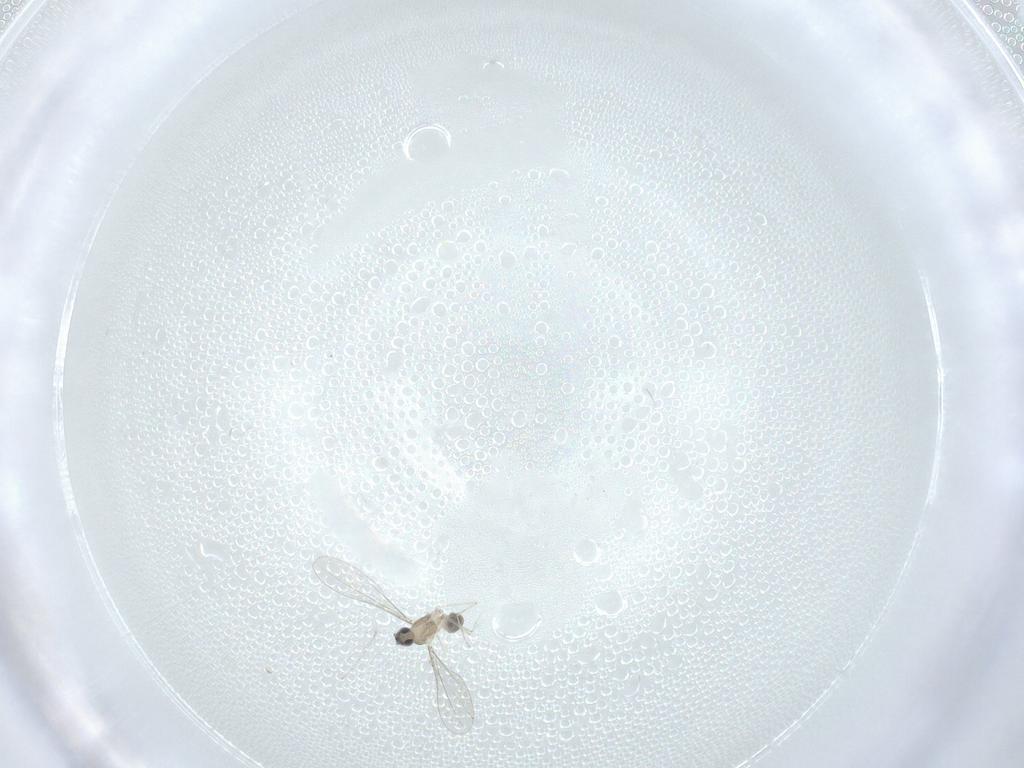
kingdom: Animalia
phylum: Arthropoda
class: Insecta
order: Diptera
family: Cecidomyiidae
